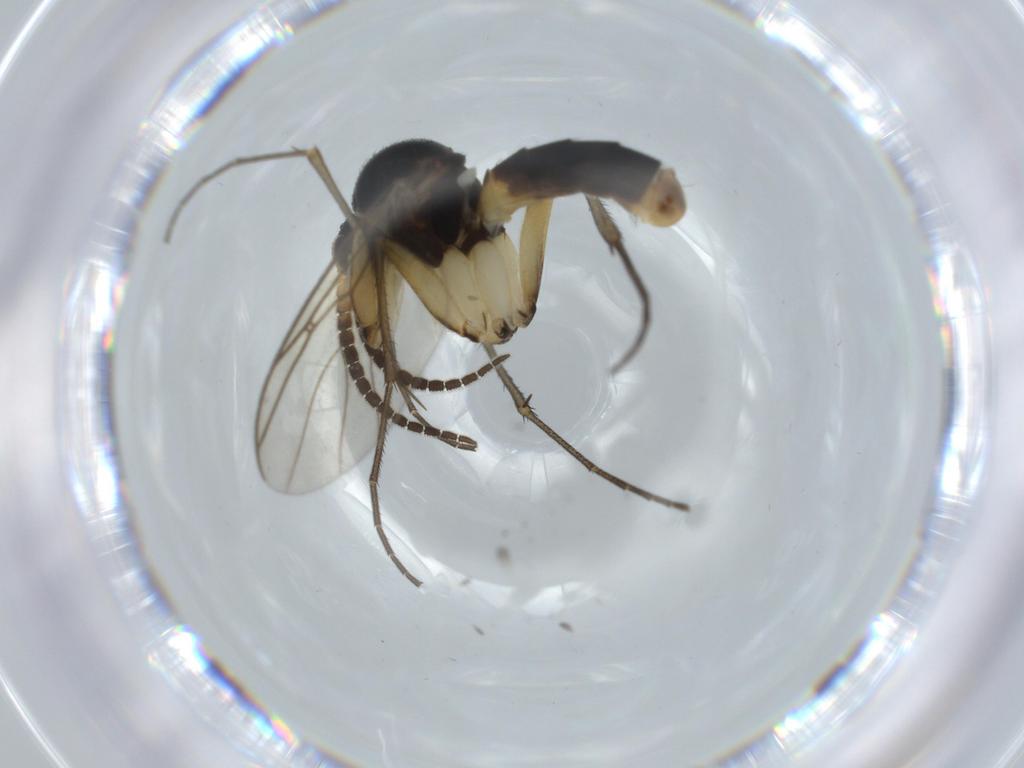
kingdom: Animalia
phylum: Arthropoda
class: Insecta
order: Diptera
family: Sciaridae
